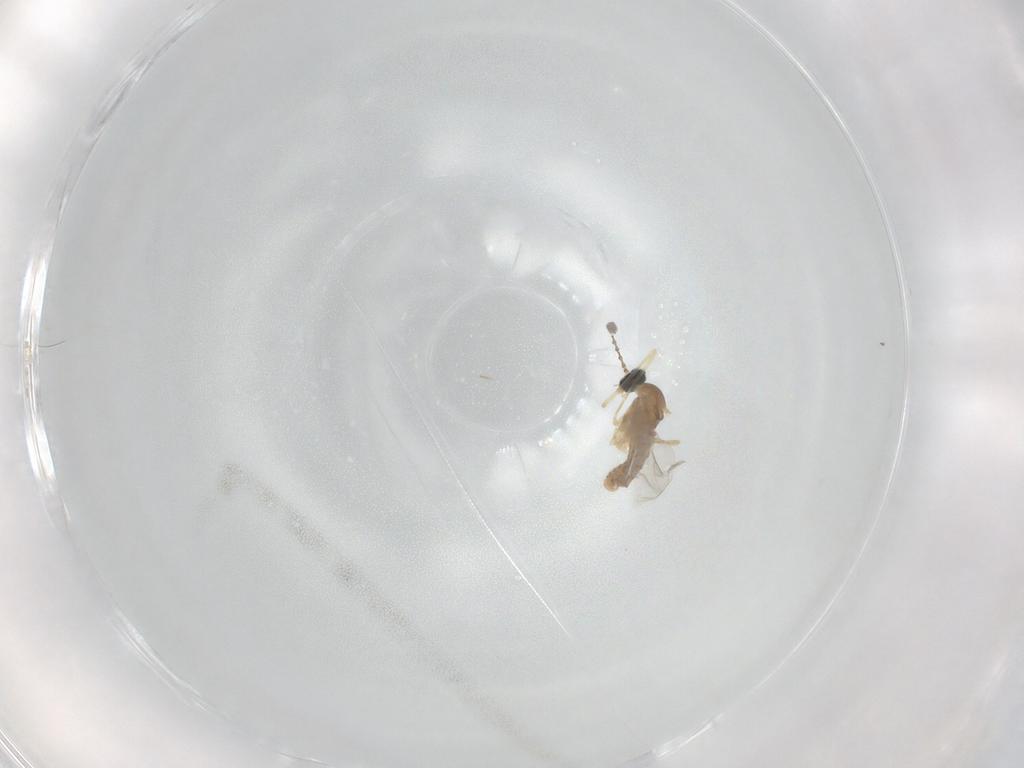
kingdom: Animalia
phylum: Arthropoda
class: Insecta
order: Diptera
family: Cecidomyiidae
